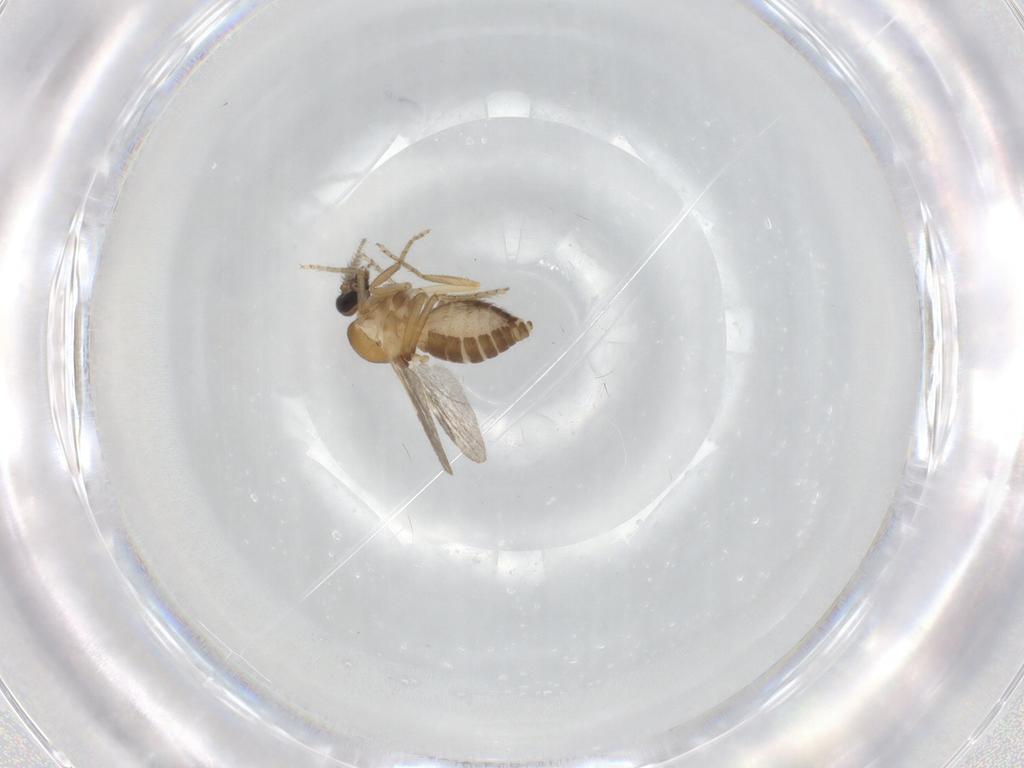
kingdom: Animalia
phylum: Arthropoda
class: Insecta
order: Diptera
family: Ceratopogonidae
